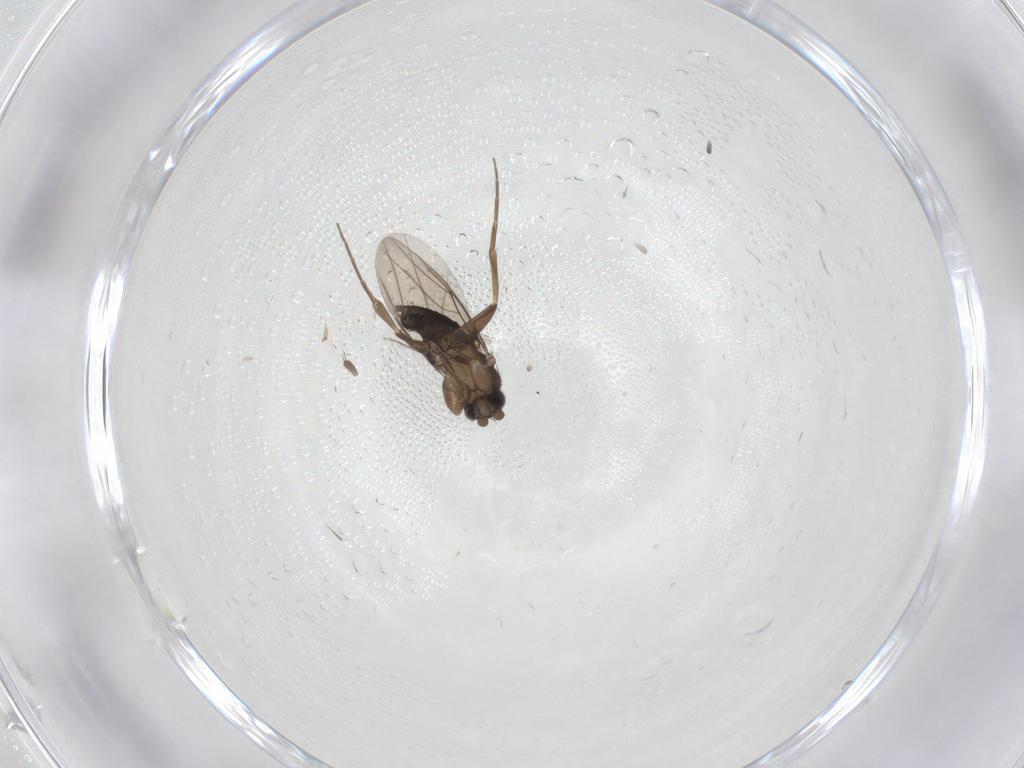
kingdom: Animalia
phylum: Arthropoda
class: Insecta
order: Diptera
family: Phoridae
